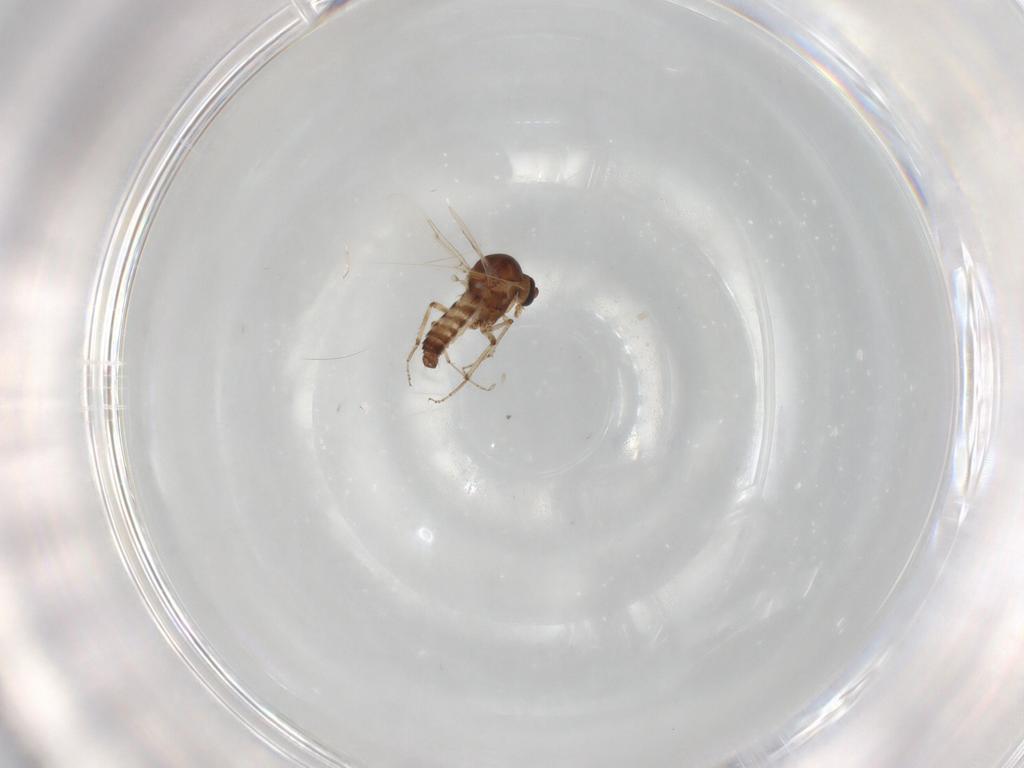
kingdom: Animalia
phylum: Arthropoda
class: Insecta
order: Diptera
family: Ceratopogonidae
